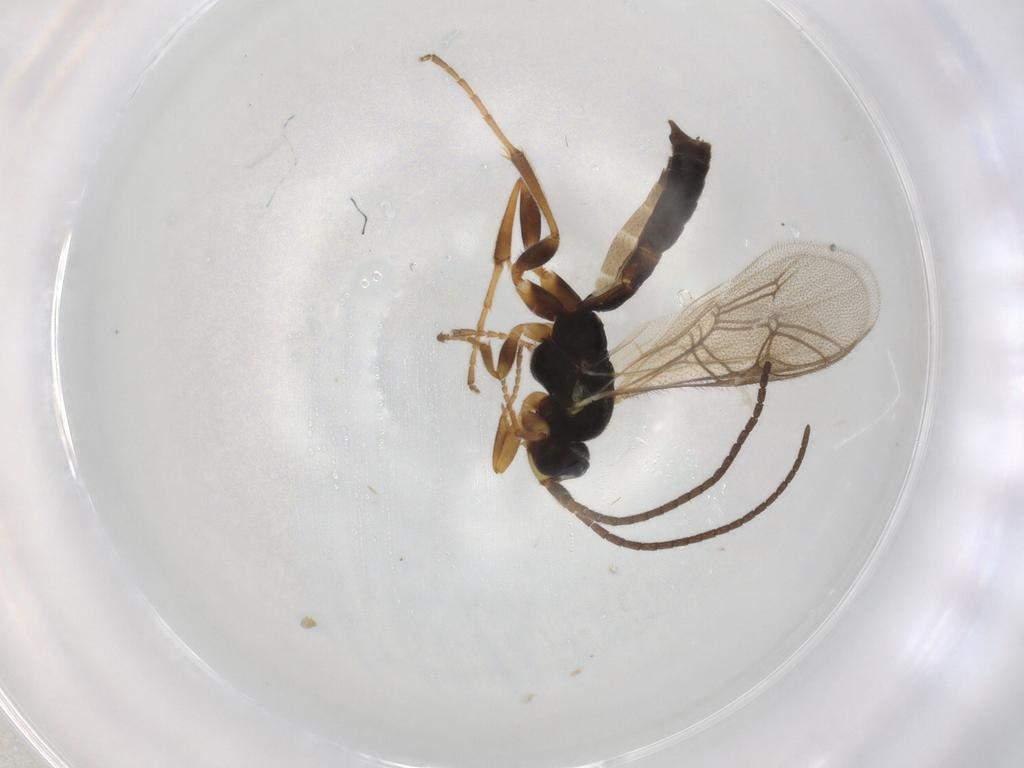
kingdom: Animalia
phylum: Arthropoda
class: Insecta
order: Hymenoptera
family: Ichneumonidae
